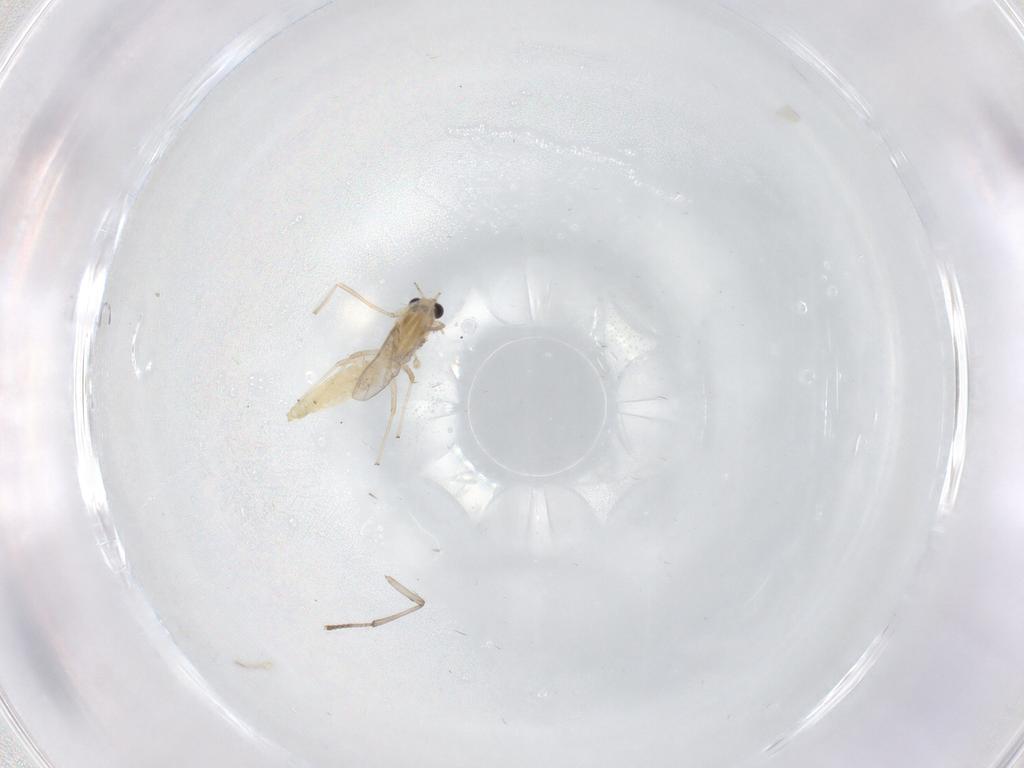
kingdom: Animalia
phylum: Arthropoda
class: Insecta
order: Diptera
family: Chironomidae
